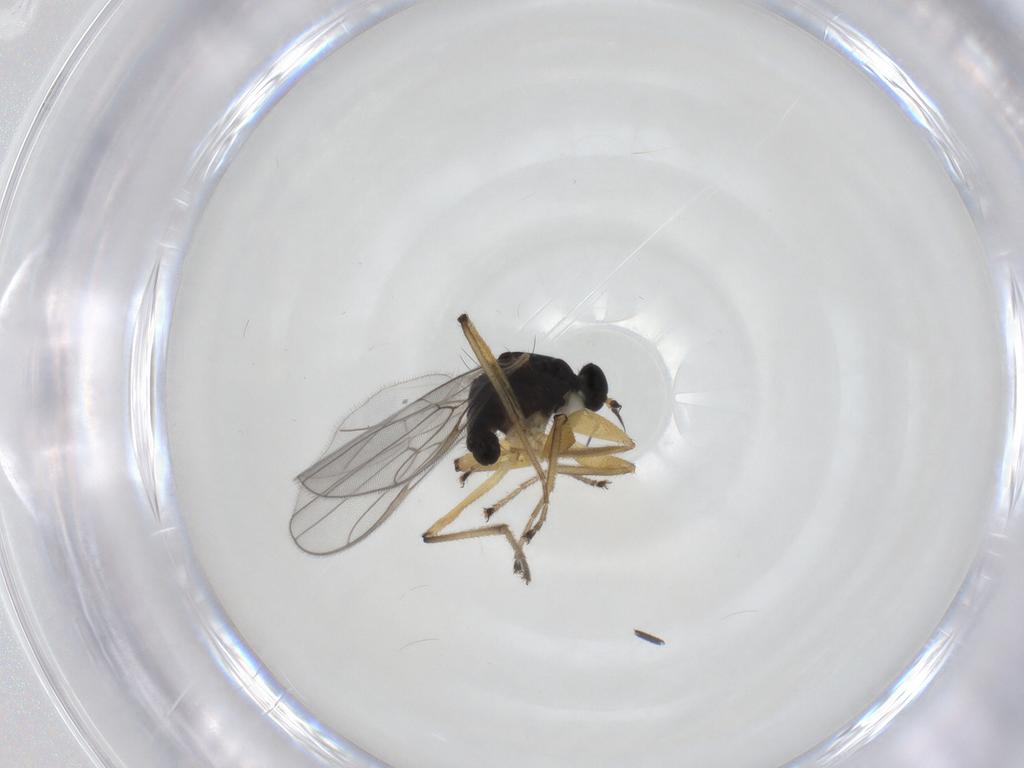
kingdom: Animalia
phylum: Arthropoda
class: Insecta
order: Diptera
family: Hybotidae
